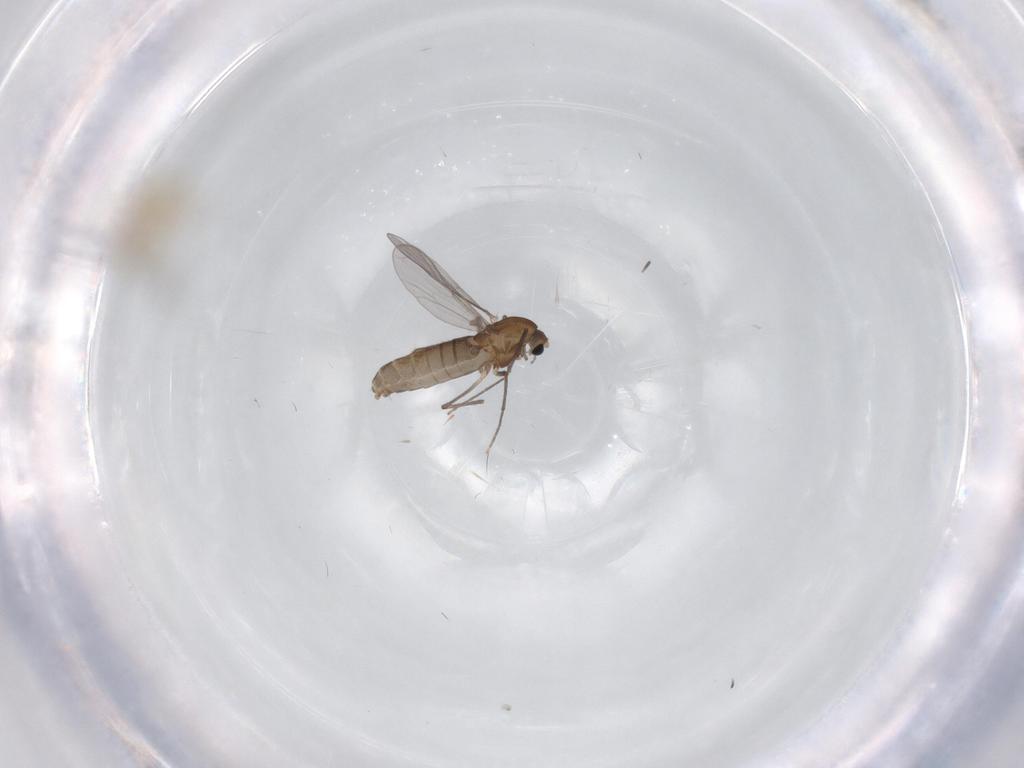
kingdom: Animalia
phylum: Arthropoda
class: Insecta
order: Diptera
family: Chironomidae
